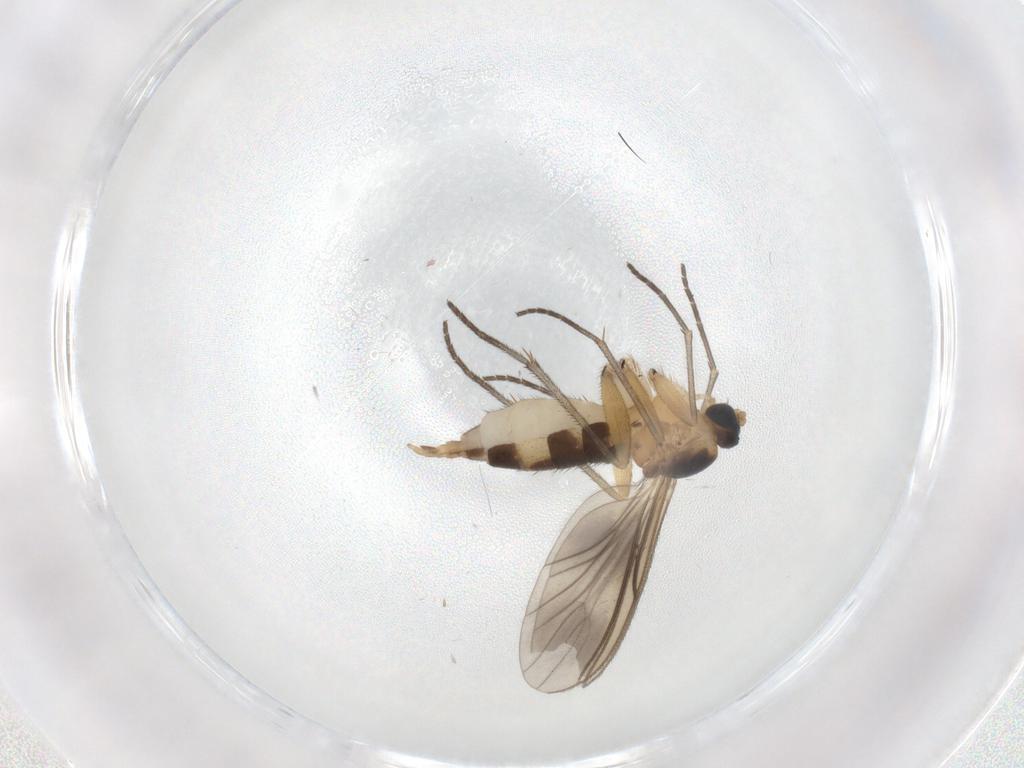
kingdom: Animalia
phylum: Arthropoda
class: Insecta
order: Diptera
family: Sciaridae
